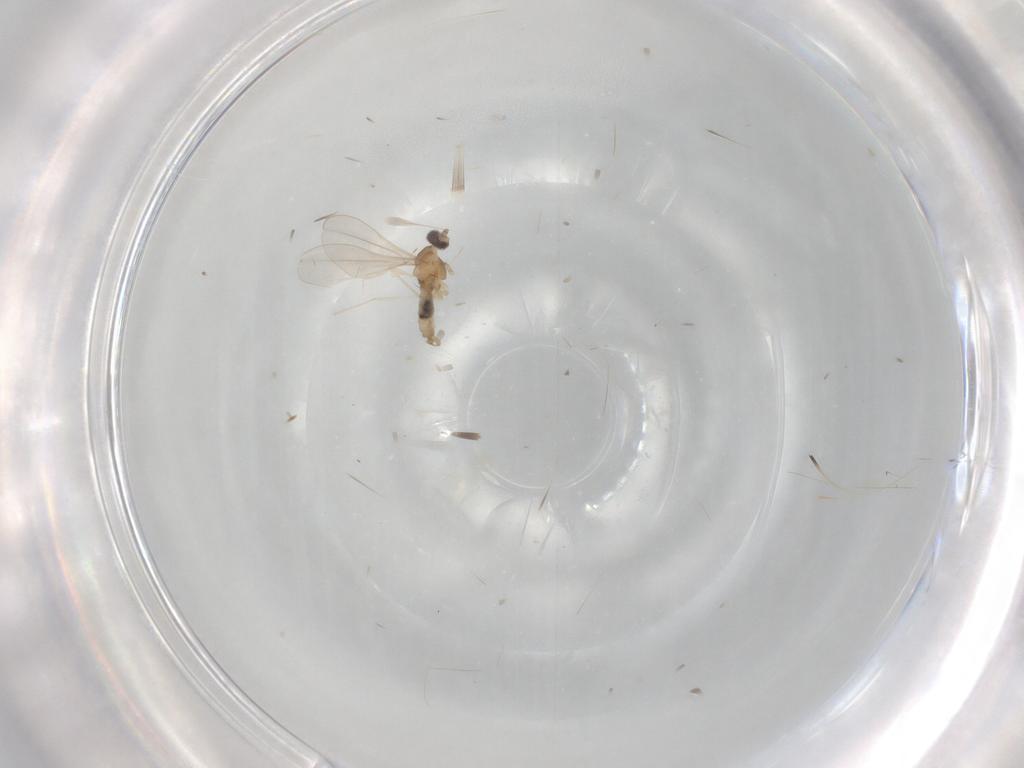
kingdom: Animalia
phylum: Arthropoda
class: Insecta
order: Diptera
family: Cecidomyiidae
